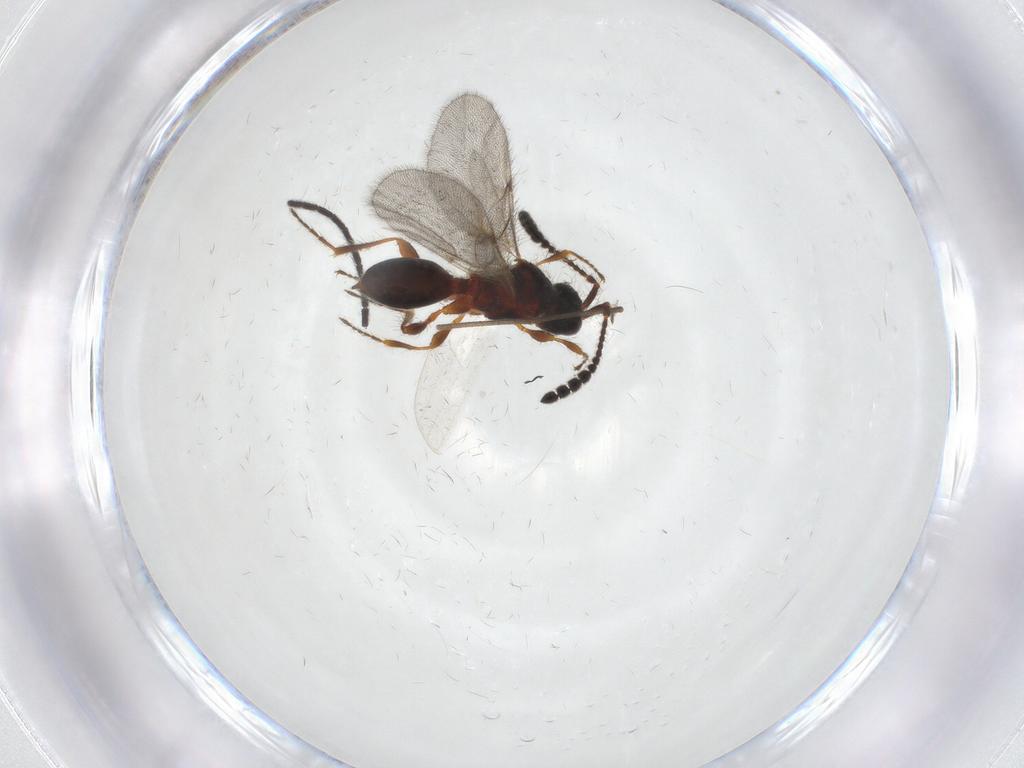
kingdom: Animalia
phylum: Arthropoda
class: Insecta
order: Hymenoptera
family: Diapriidae
